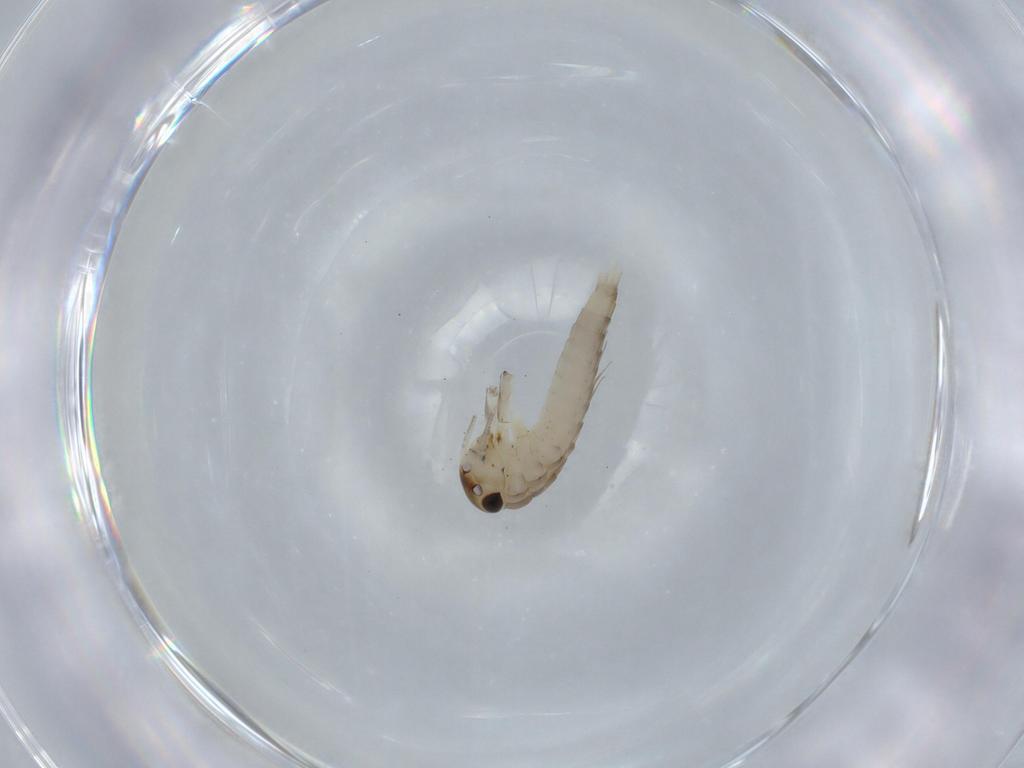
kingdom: Animalia
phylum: Arthropoda
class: Insecta
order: Ephemeroptera
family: Baetidae
